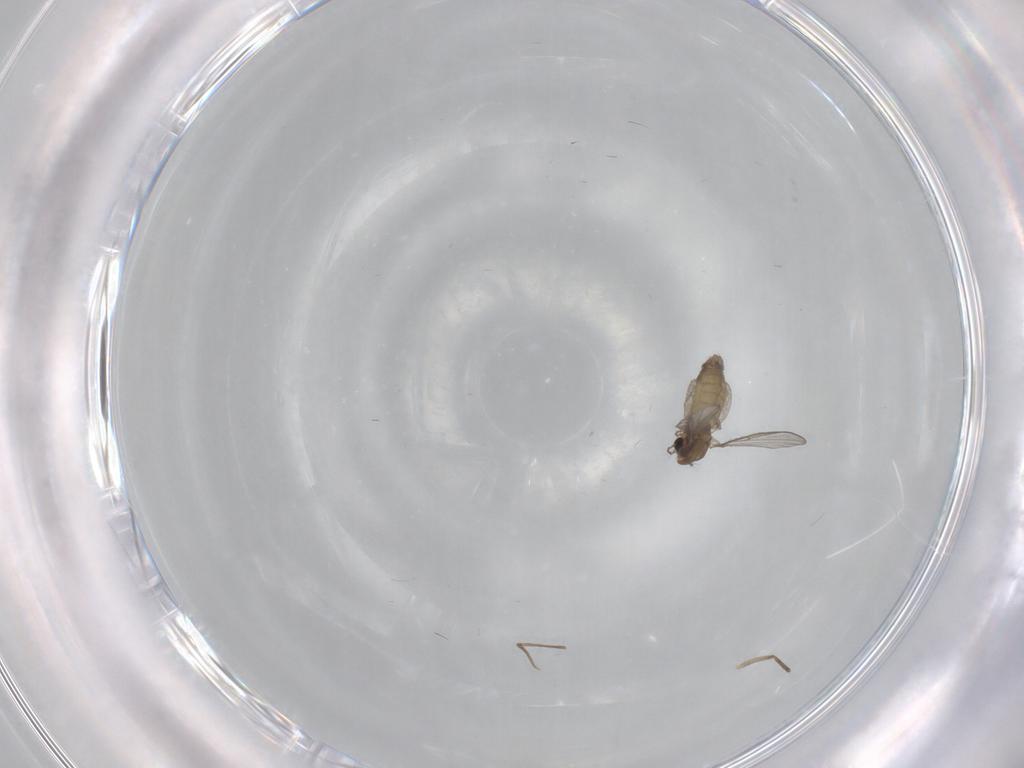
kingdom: Animalia
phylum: Arthropoda
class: Insecta
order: Diptera
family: Chironomidae
